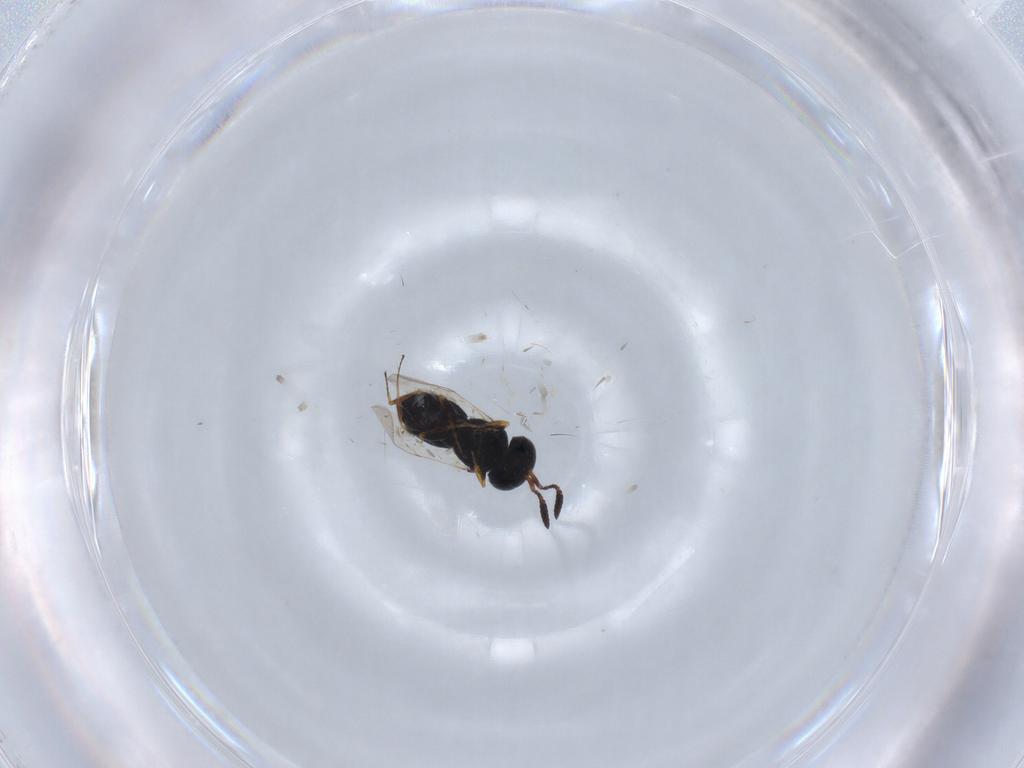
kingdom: Animalia
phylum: Arthropoda
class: Insecta
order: Coleoptera
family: Curculionidae
